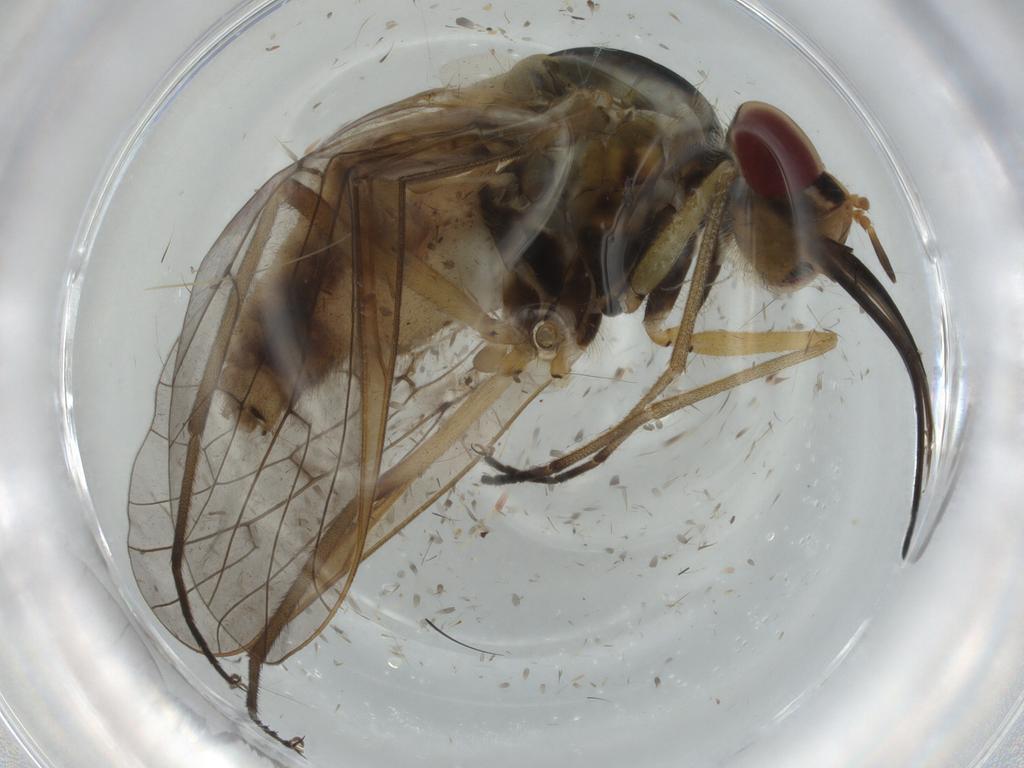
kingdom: Animalia
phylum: Arthropoda
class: Insecta
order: Diptera
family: Bombyliidae
